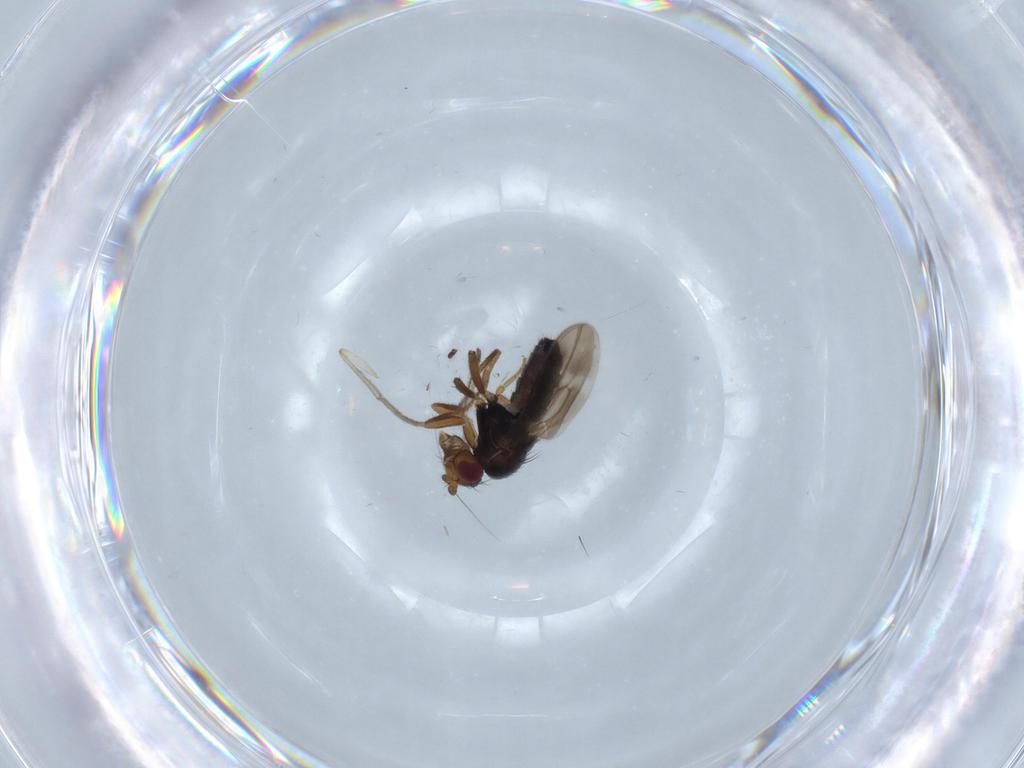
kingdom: Animalia
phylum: Arthropoda
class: Insecta
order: Diptera
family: Sphaeroceridae
